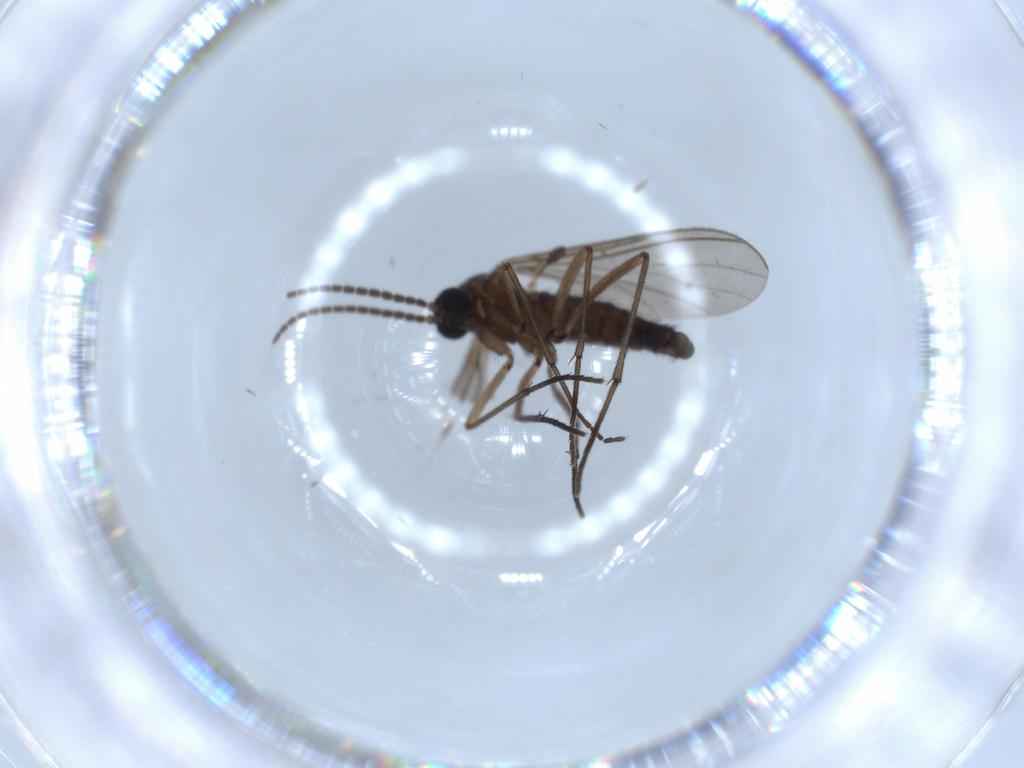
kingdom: Animalia
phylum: Arthropoda
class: Insecta
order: Diptera
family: Sciaridae
